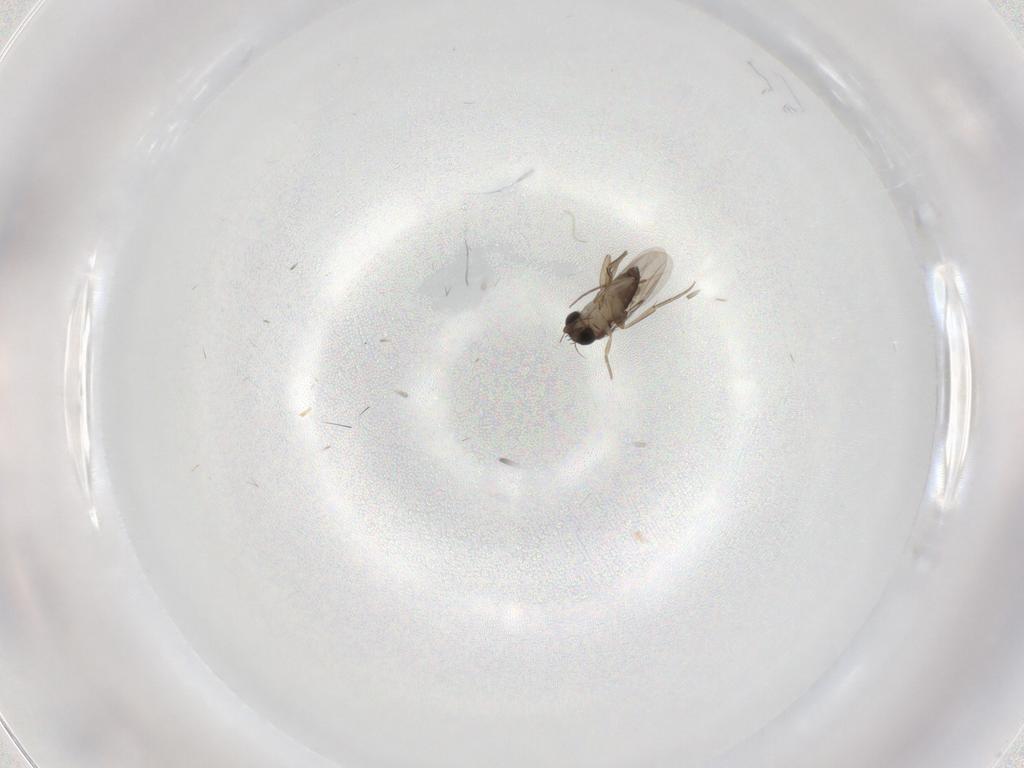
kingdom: Animalia
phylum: Arthropoda
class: Insecta
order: Diptera
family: Phoridae
